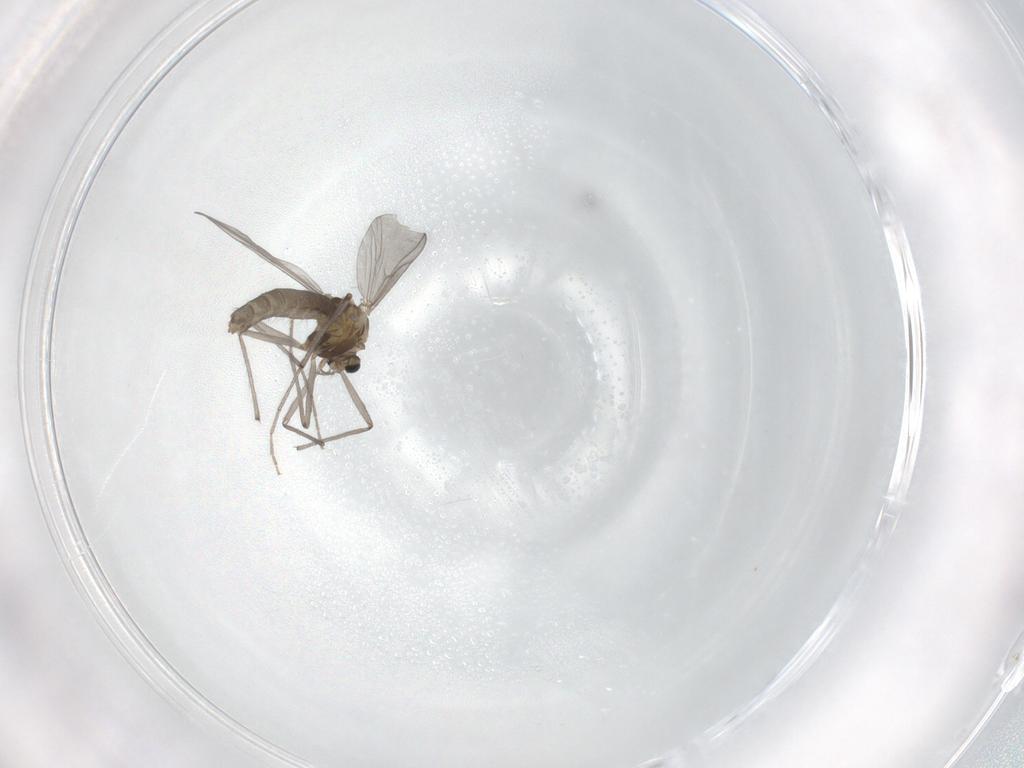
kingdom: Animalia
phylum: Arthropoda
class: Insecta
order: Diptera
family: Chironomidae
